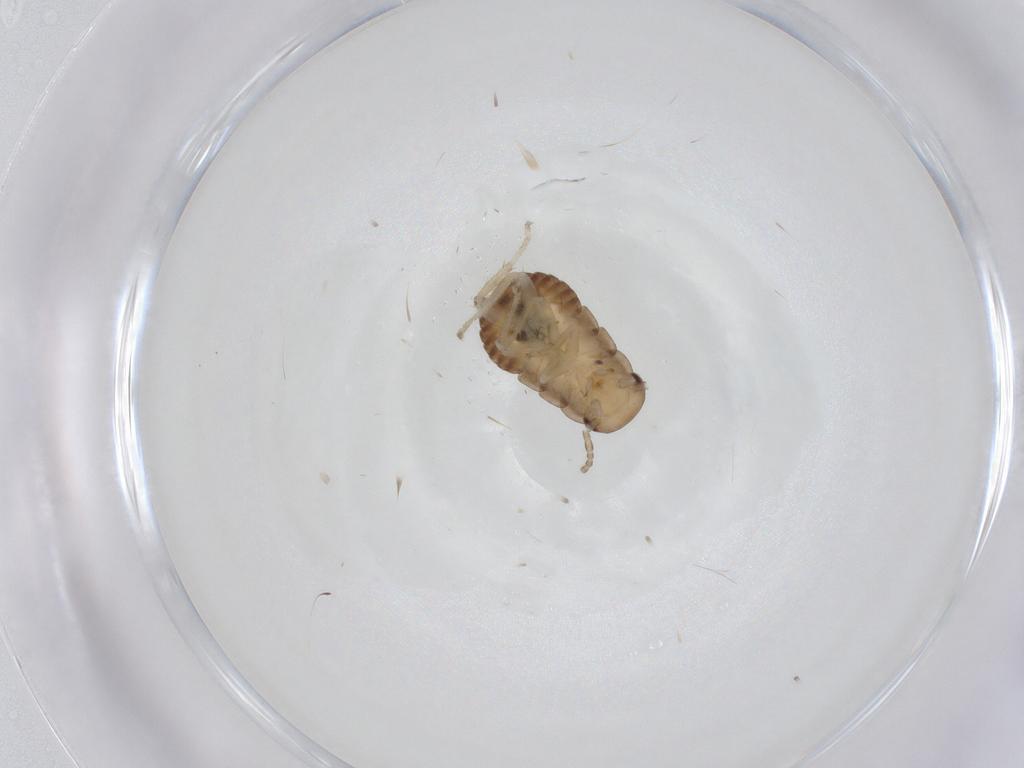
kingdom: Animalia
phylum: Arthropoda
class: Insecta
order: Blattodea
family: Ectobiidae
